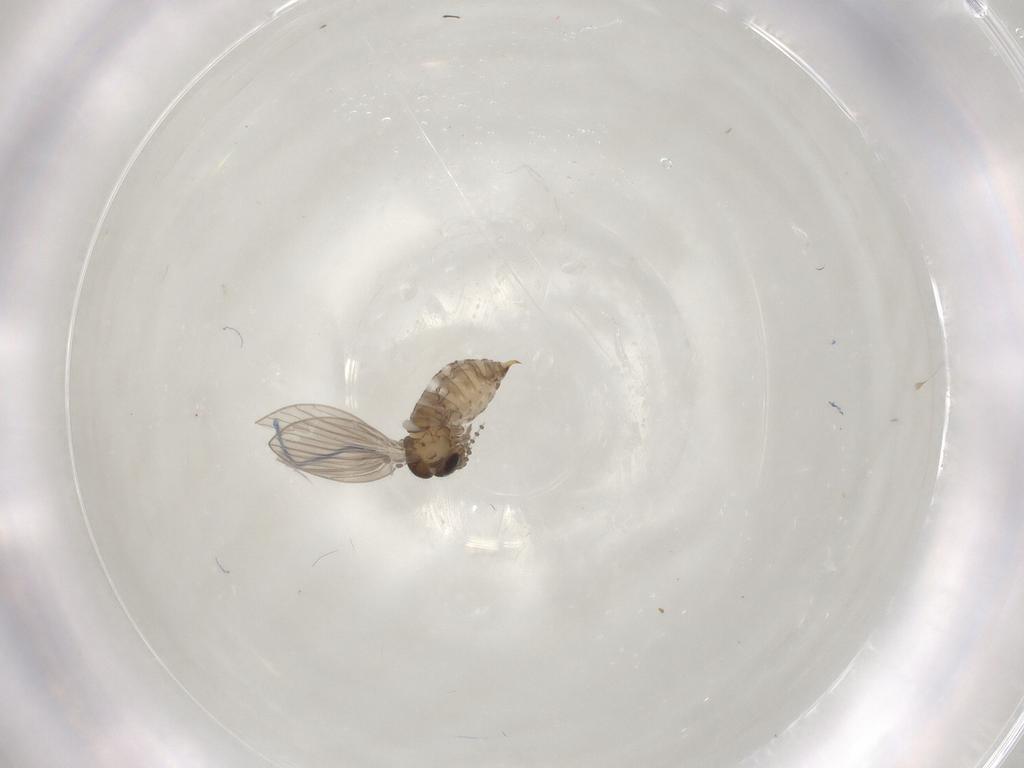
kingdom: Animalia
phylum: Arthropoda
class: Insecta
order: Diptera
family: Psychodidae
